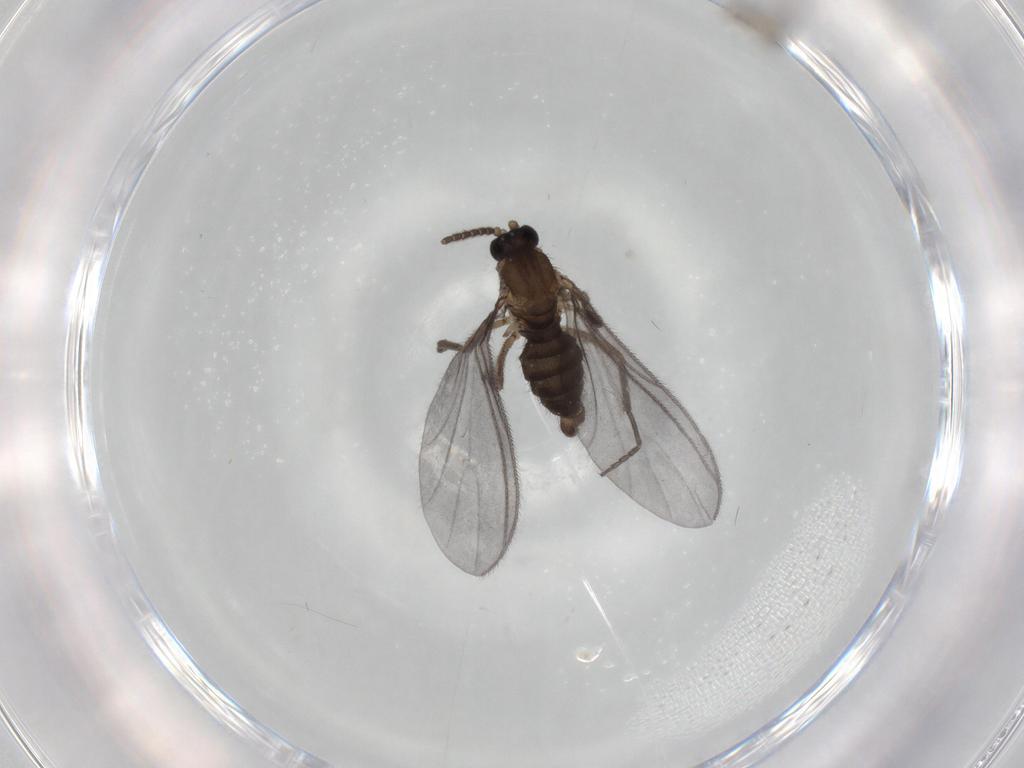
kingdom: Animalia
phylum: Arthropoda
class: Insecta
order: Diptera
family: Sciaridae
